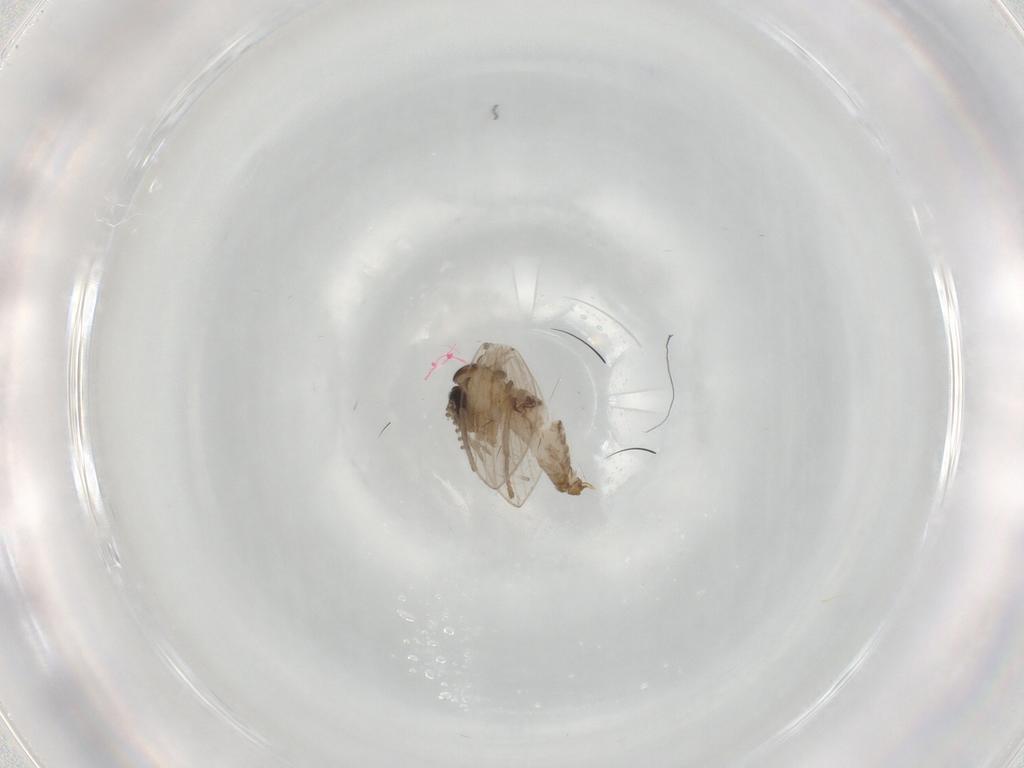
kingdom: Animalia
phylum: Arthropoda
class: Insecta
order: Diptera
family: Psychodidae
